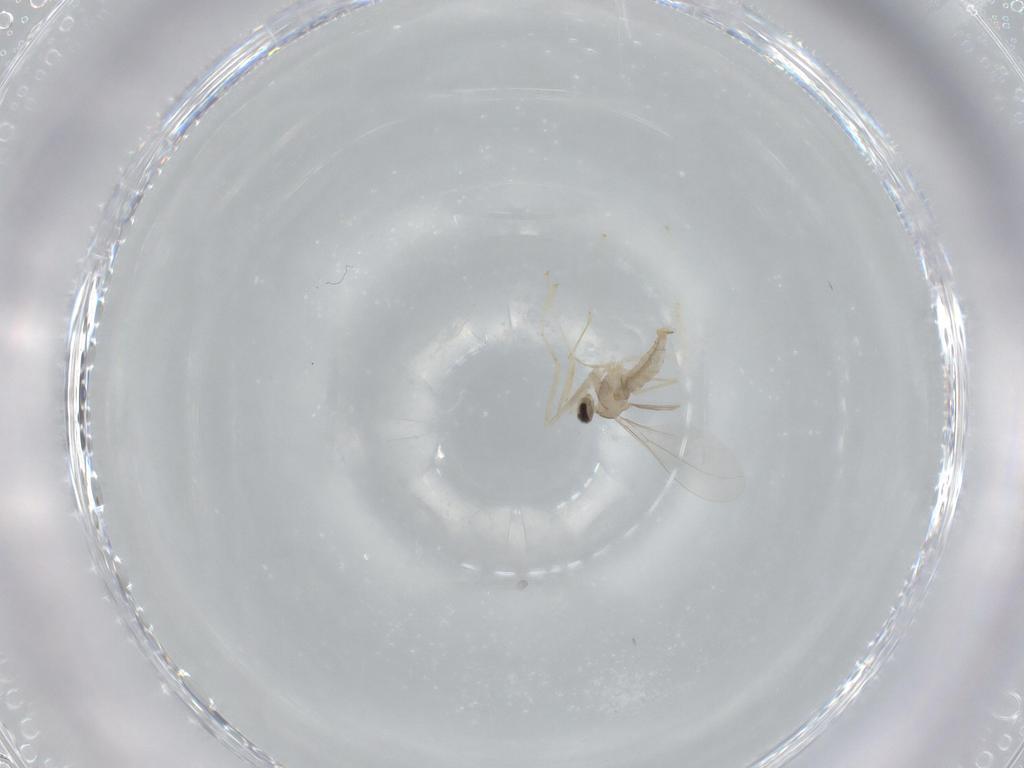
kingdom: Animalia
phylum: Arthropoda
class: Insecta
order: Diptera
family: Cecidomyiidae
